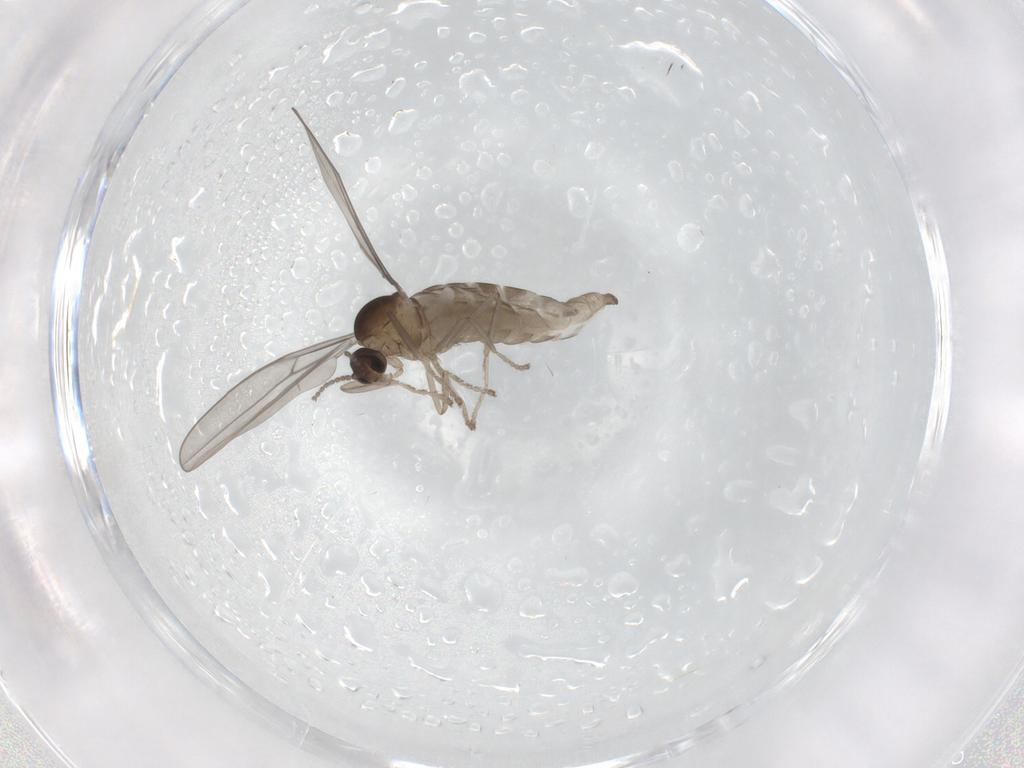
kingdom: Animalia
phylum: Arthropoda
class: Insecta
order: Diptera
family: Cecidomyiidae
